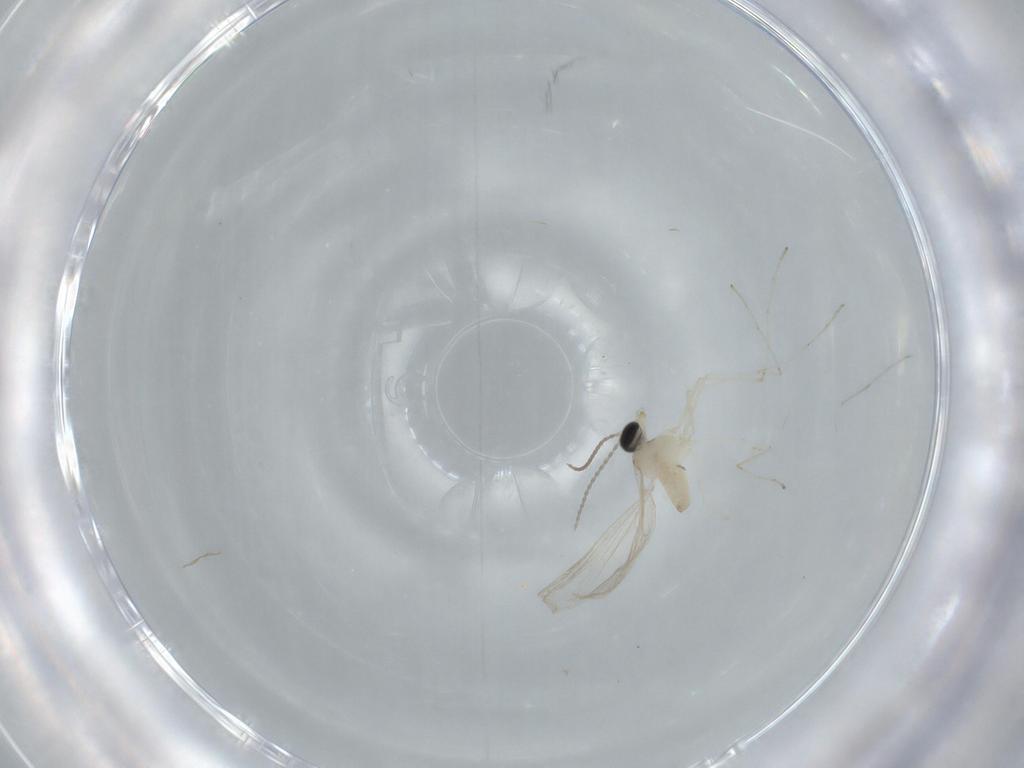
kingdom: Animalia
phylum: Arthropoda
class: Insecta
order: Diptera
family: Cecidomyiidae
